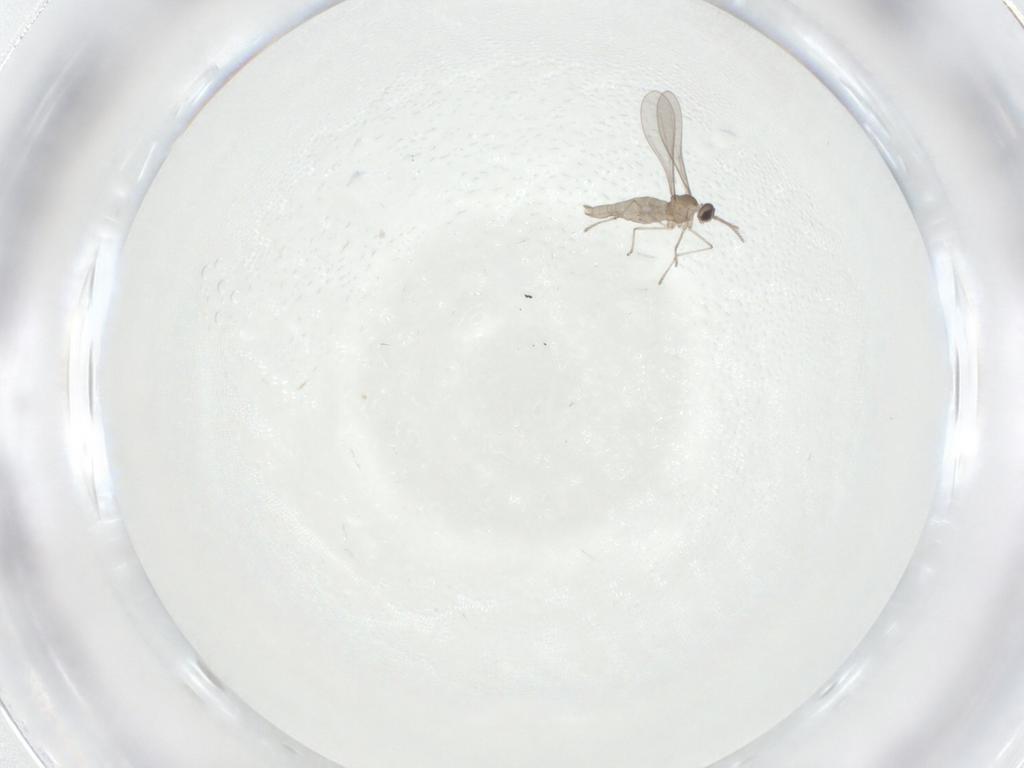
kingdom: Animalia
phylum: Arthropoda
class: Insecta
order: Diptera
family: Cecidomyiidae
